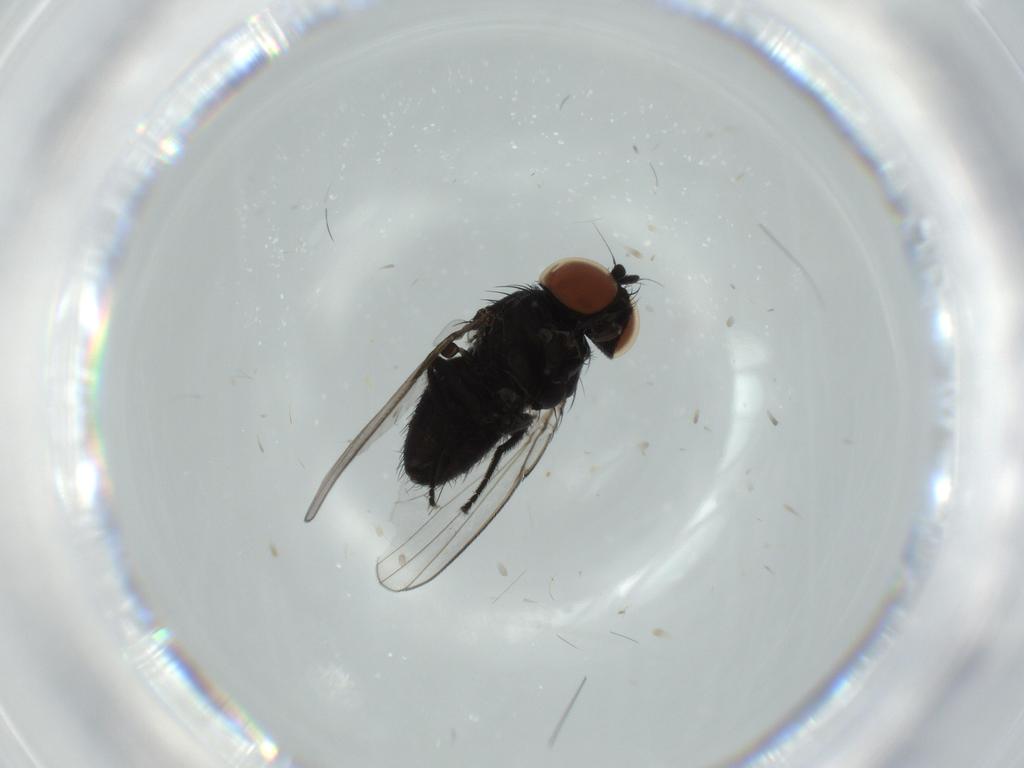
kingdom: Animalia
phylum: Arthropoda
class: Insecta
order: Diptera
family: Milichiidae
